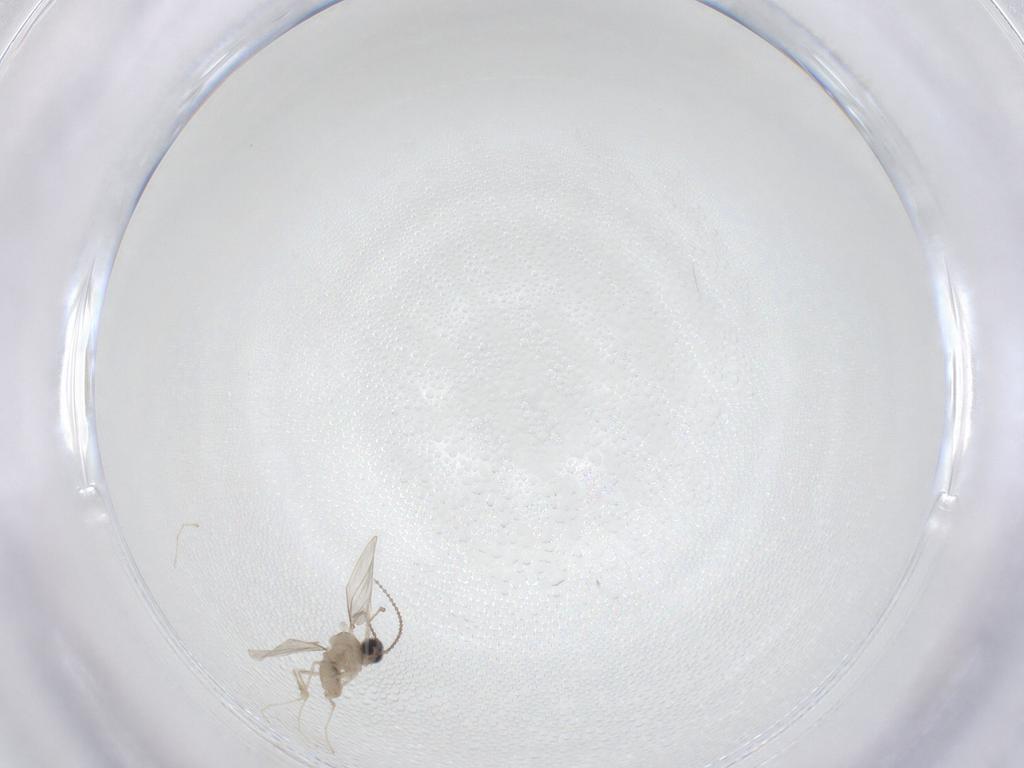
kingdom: Animalia
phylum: Arthropoda
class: Insecta
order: Diptera
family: Cecidomyiidae
